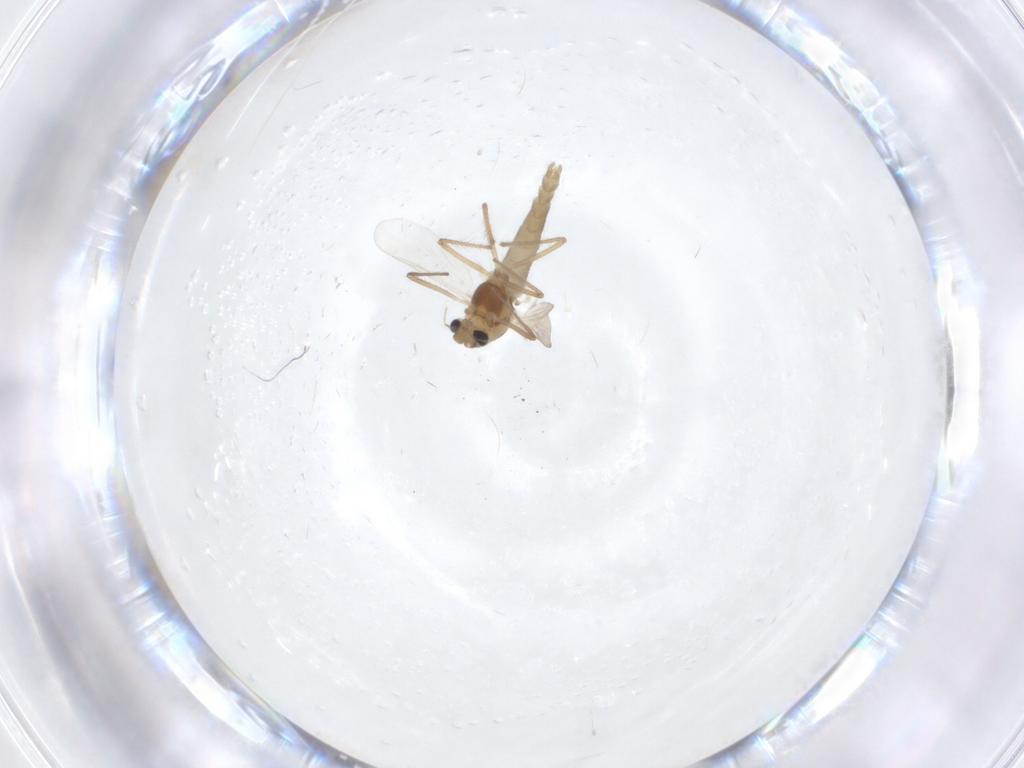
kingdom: Animalia
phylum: Arthropoda
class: Insecta
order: Diptera
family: Chironomidae
